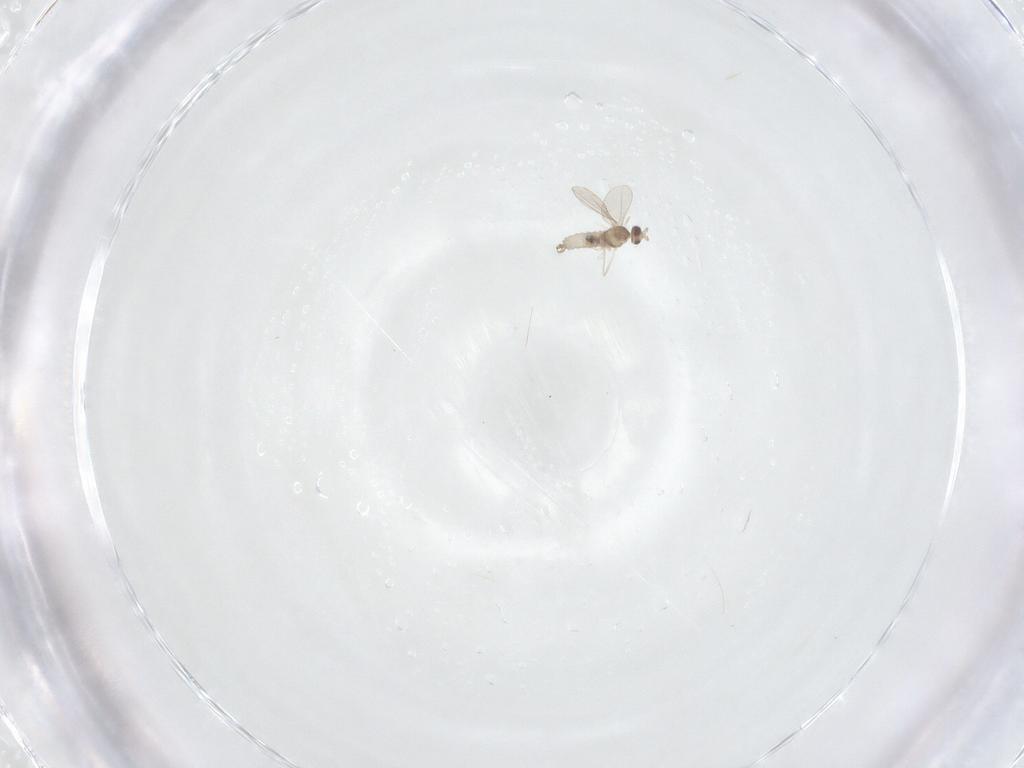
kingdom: Animalia
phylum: Arthropoda
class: Insecta
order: Diptera
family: Cecidomyiidae
